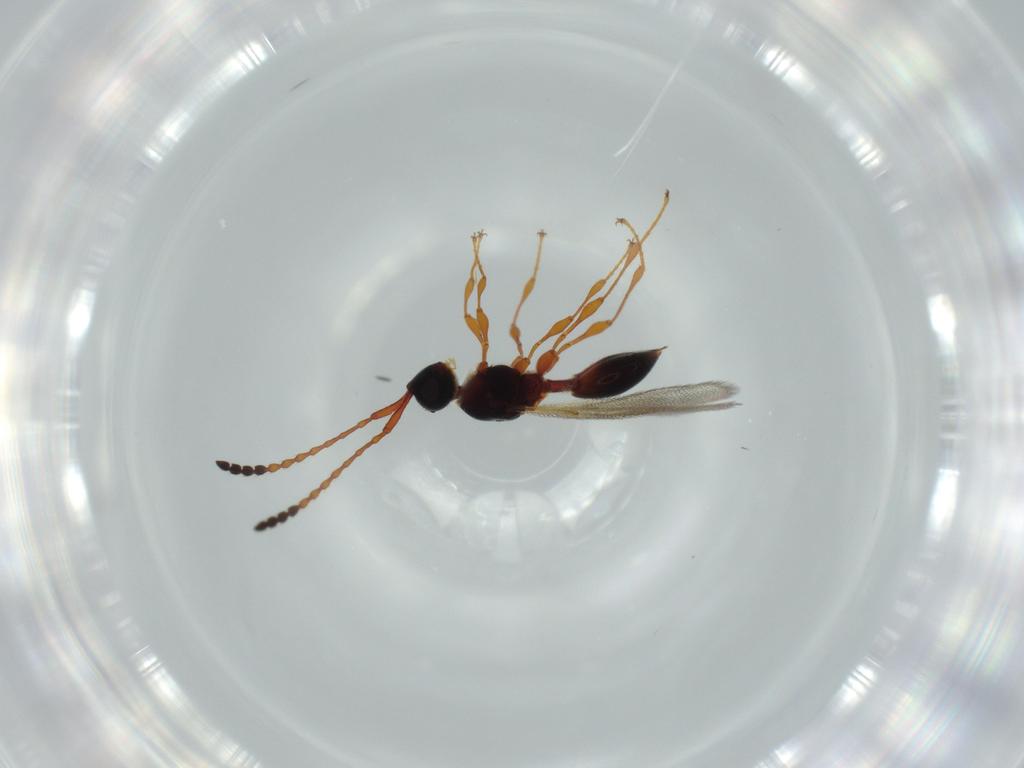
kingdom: Animalia
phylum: Arthropoda
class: Insecta
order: Hymenoptera
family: Diapriidae
